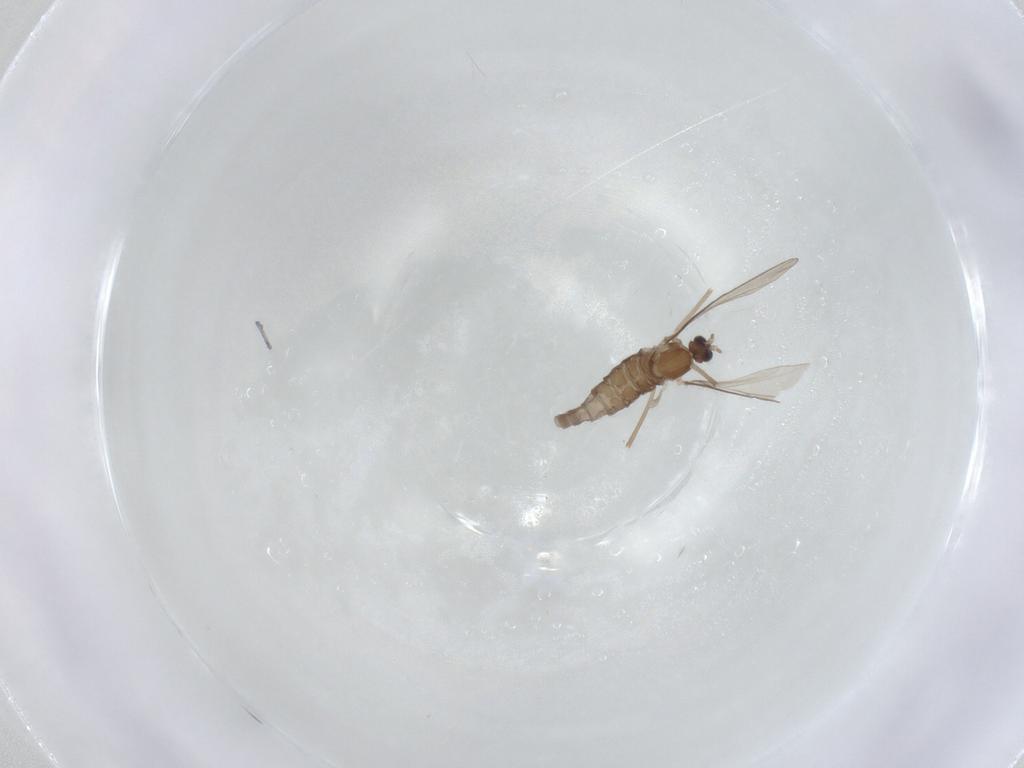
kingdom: Animalia
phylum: Arthropoda
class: Insecta
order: Diptera
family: Cecidomyiidae
